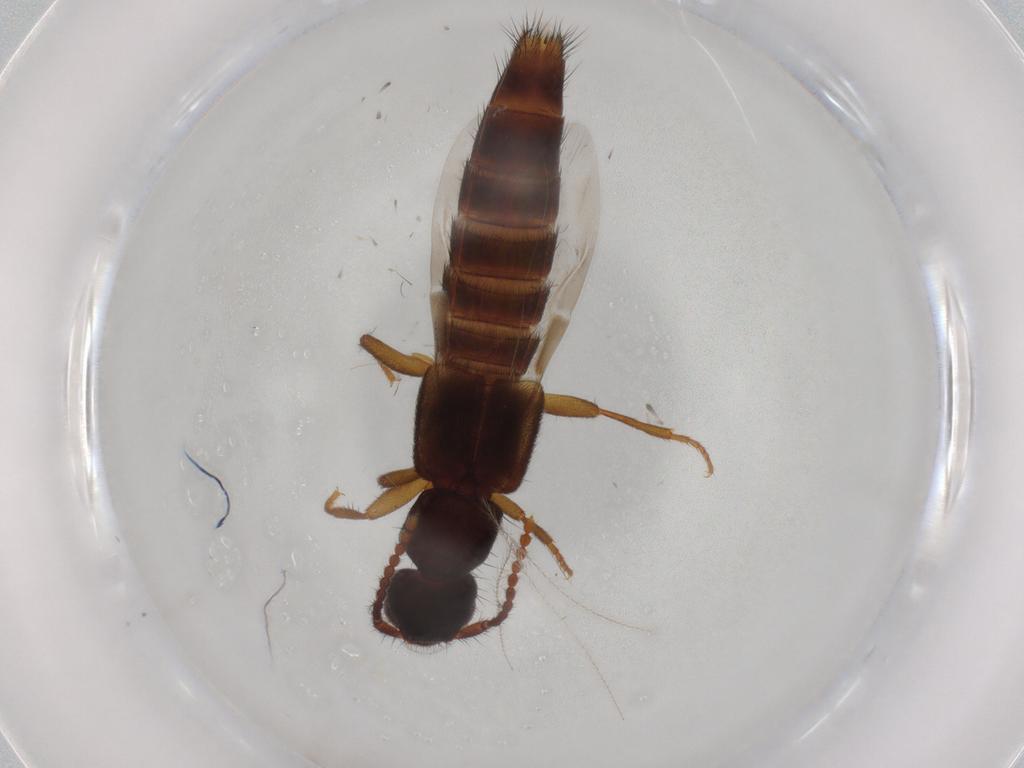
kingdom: Animalia
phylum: Arthropoda
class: Insecta
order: Coleoptera
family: Staphylinidae
